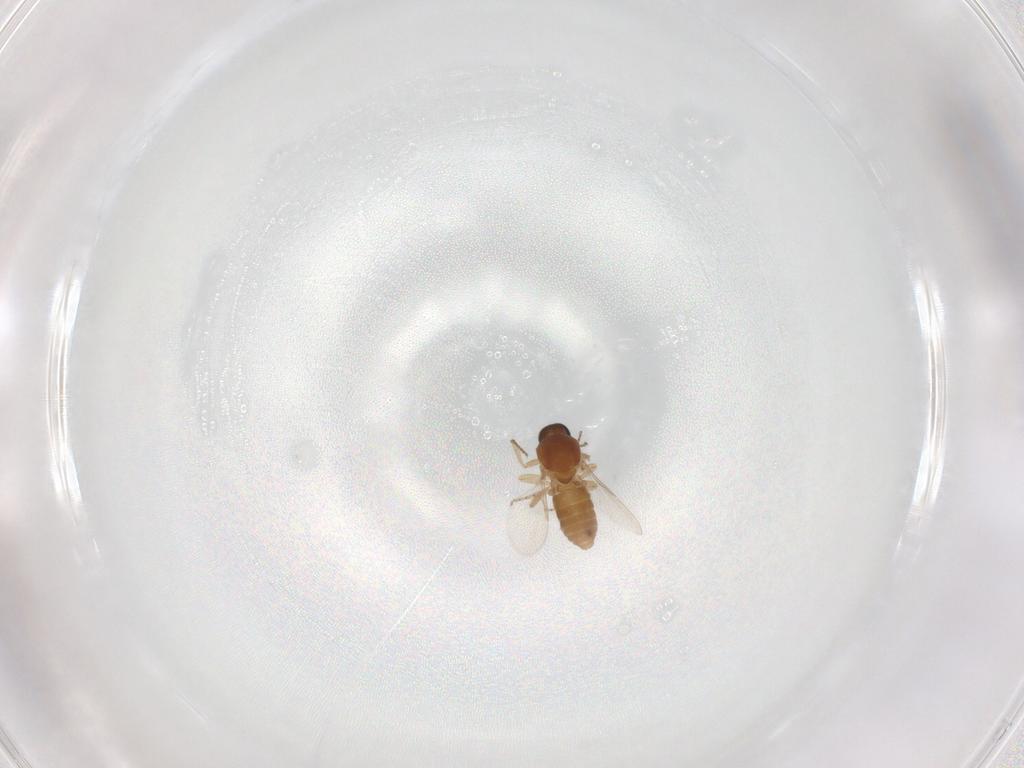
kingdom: Animalia
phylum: Arthropoda
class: Insecta
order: Diptera
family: Ceratopogonidae
